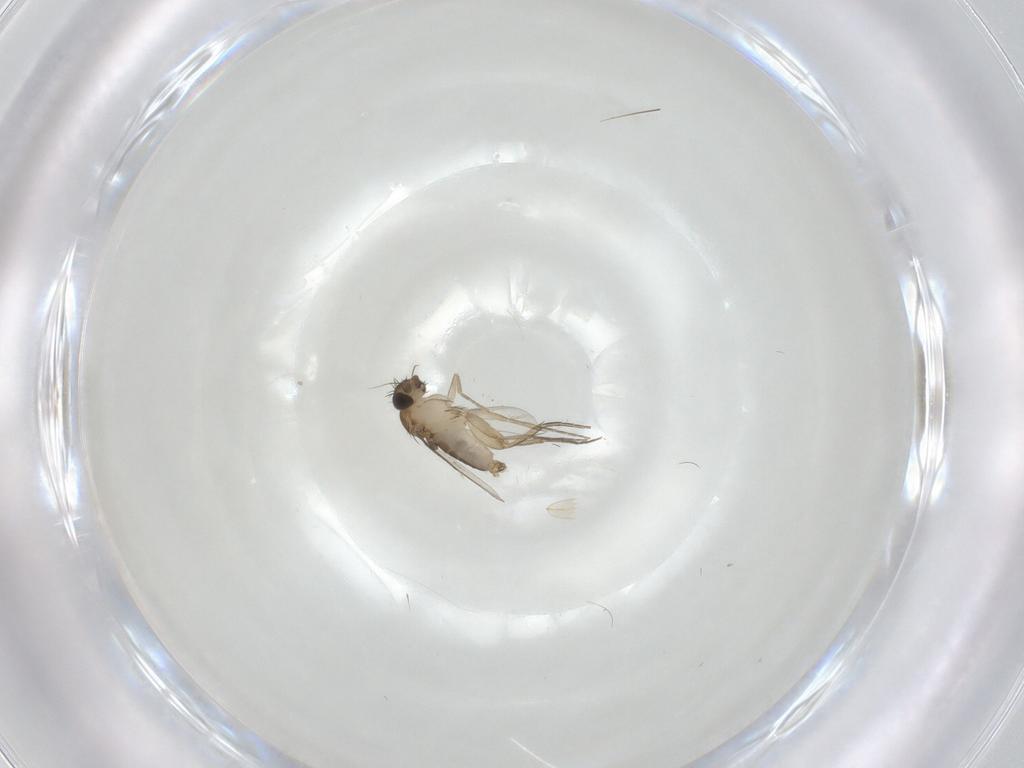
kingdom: Animalia
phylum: Arthropoda
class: Insecta
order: Diptera
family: Phoridae
